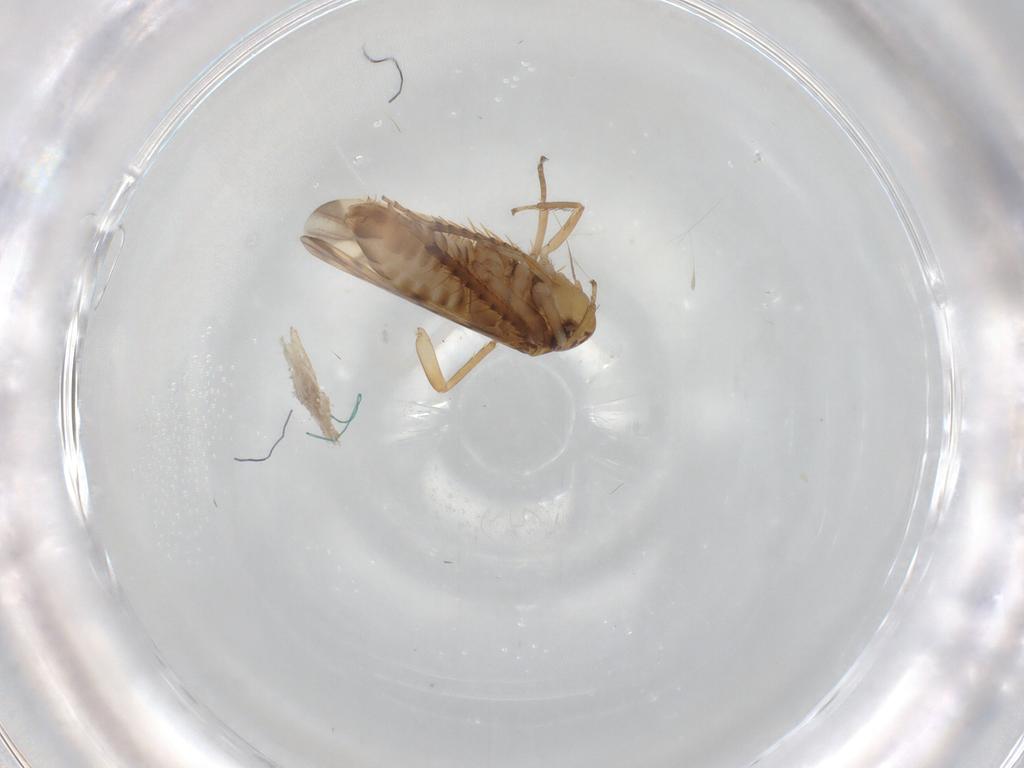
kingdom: Animalia
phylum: Arthropoda
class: Insecta
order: Hemiptera
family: Cicadellidae
